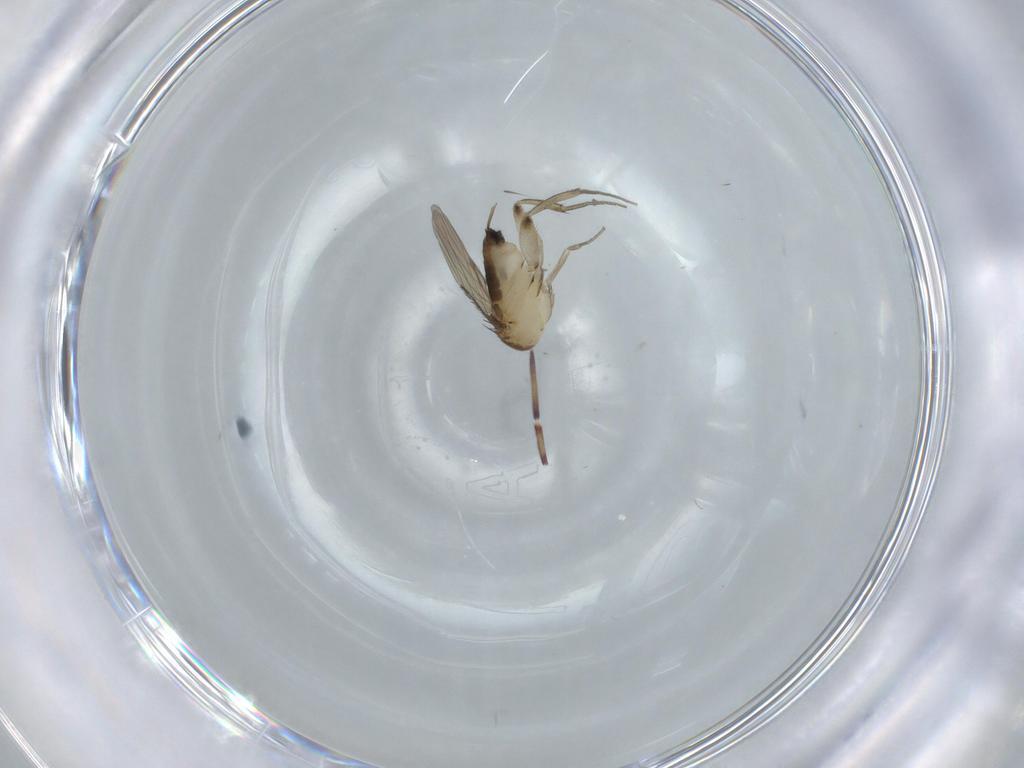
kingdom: Animalia
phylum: Arthropoda
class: Insecta
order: Diptera
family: Phoridae
